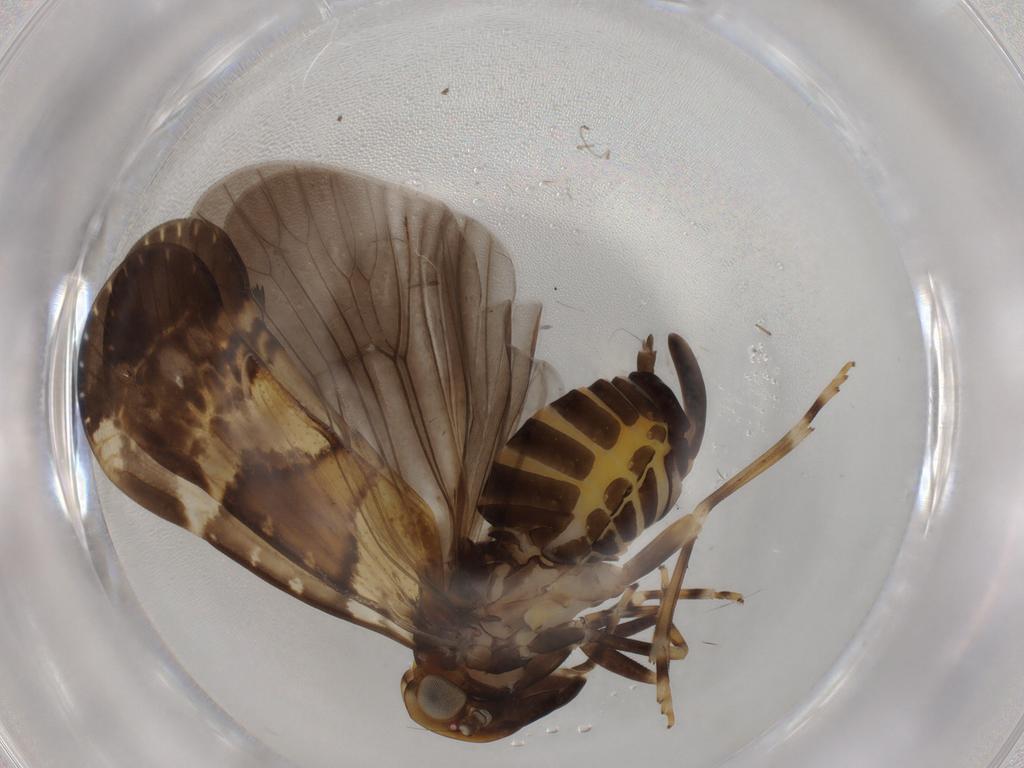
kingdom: Animalia
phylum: Arthropoda
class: Insecta
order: Hemiptera
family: Cixiidae
